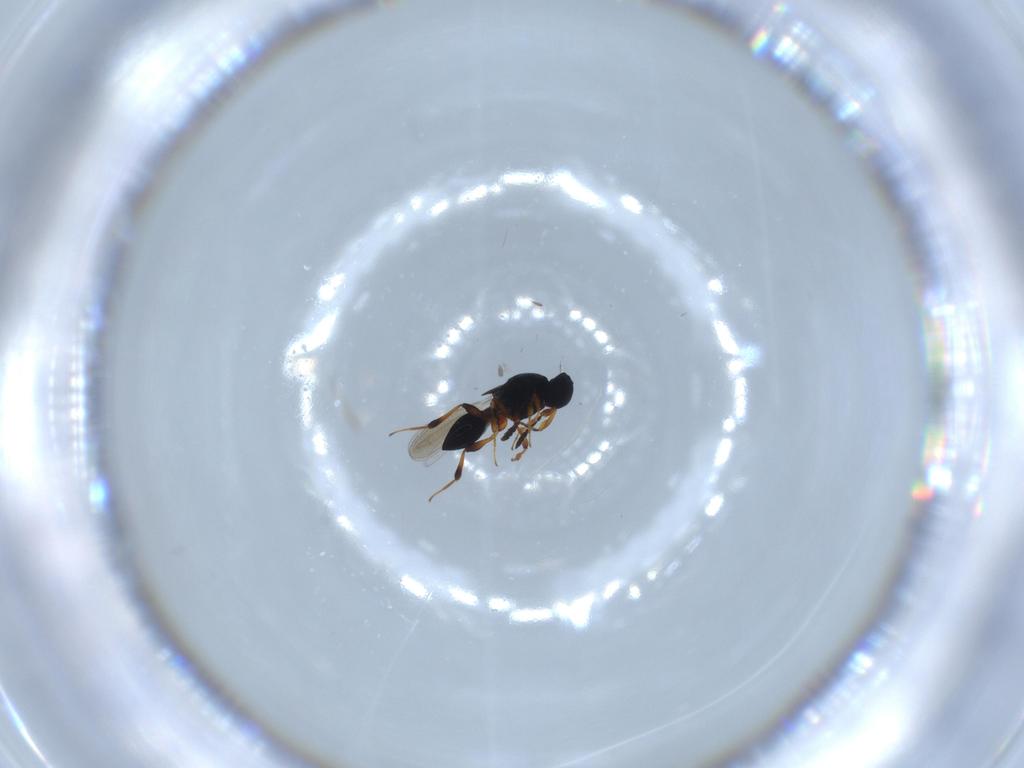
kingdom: Animalia
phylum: Arthropoda
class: Insecta
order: Hymenoptera
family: Platygastridae
